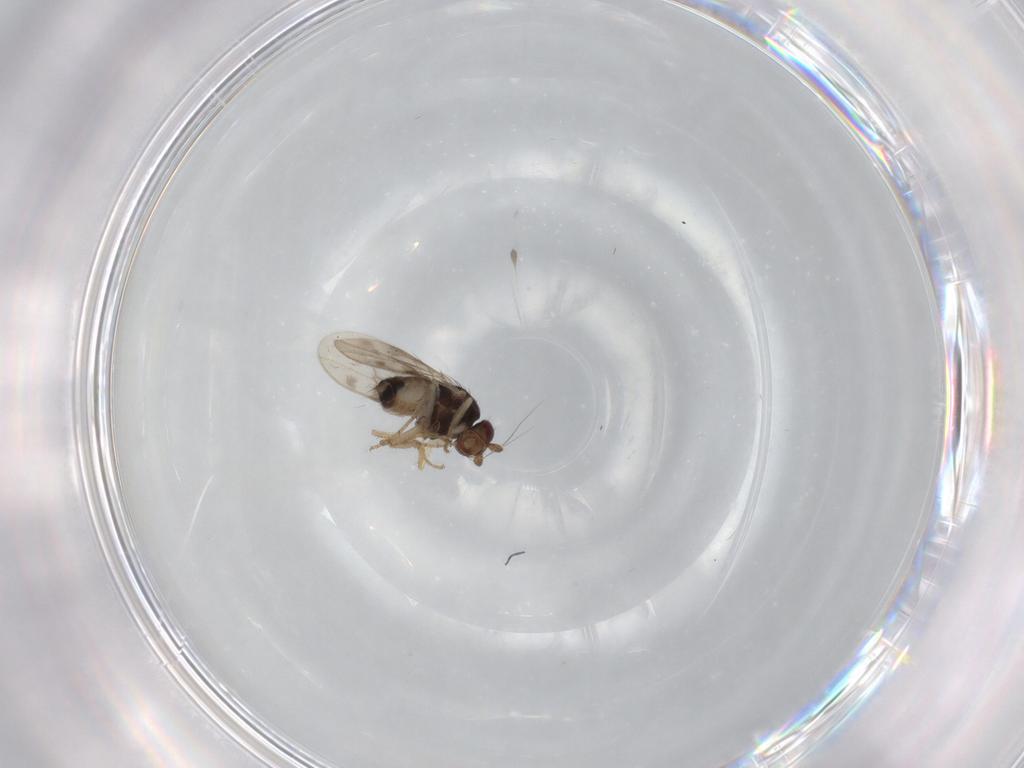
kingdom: Animalia
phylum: Arthropoda
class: Insecta
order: Diptera
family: Sphaeroceridae
